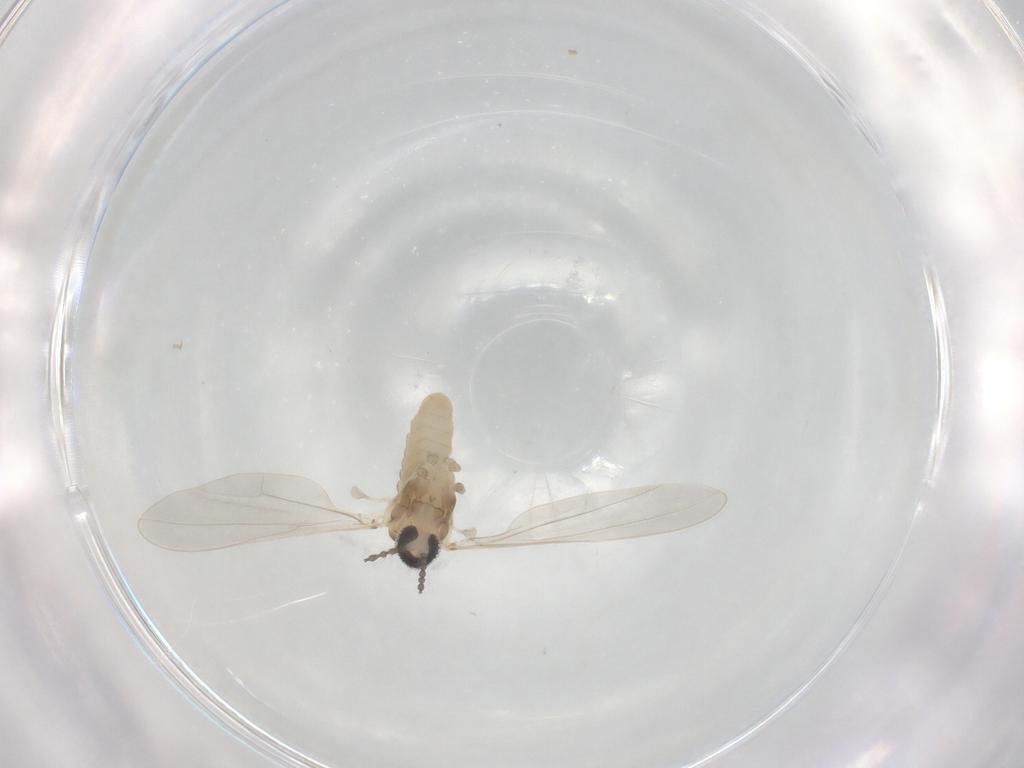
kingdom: Animalia
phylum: Arthropoda
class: Insecta
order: Diptera
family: Cecidomyiidae
